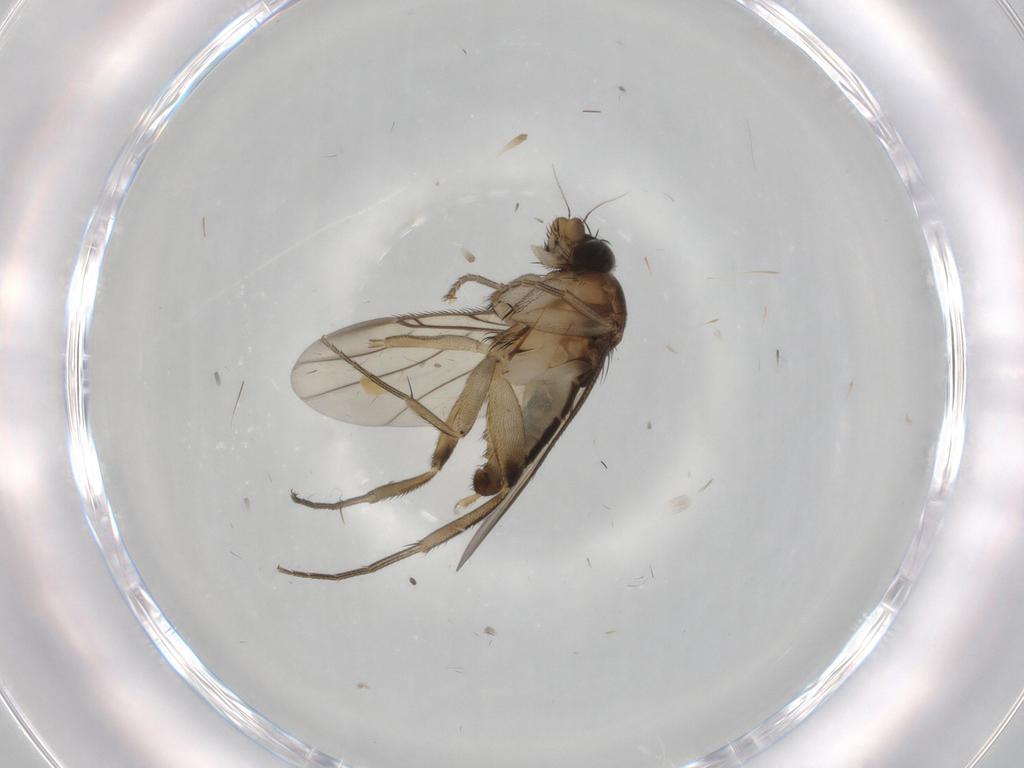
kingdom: Animalia
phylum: Arthropoda
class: Insecta
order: Diptera
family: Phoridae
